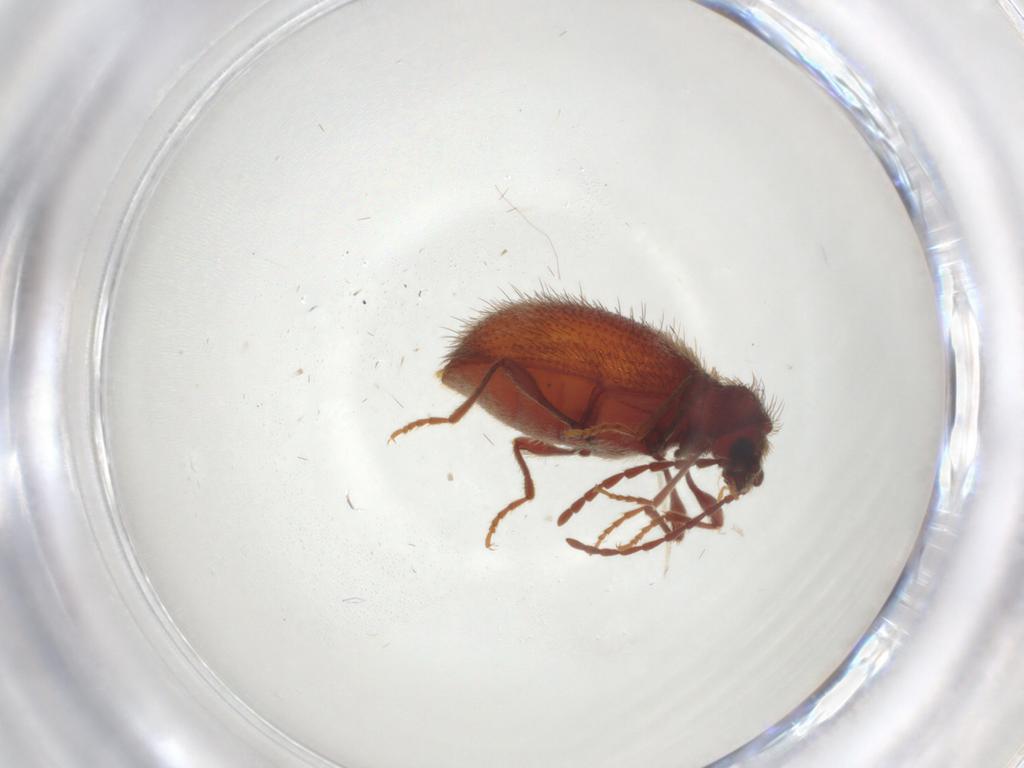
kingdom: Animalia
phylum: Arthropoda
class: Insecta
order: Coleoptera
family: Ptinidae
